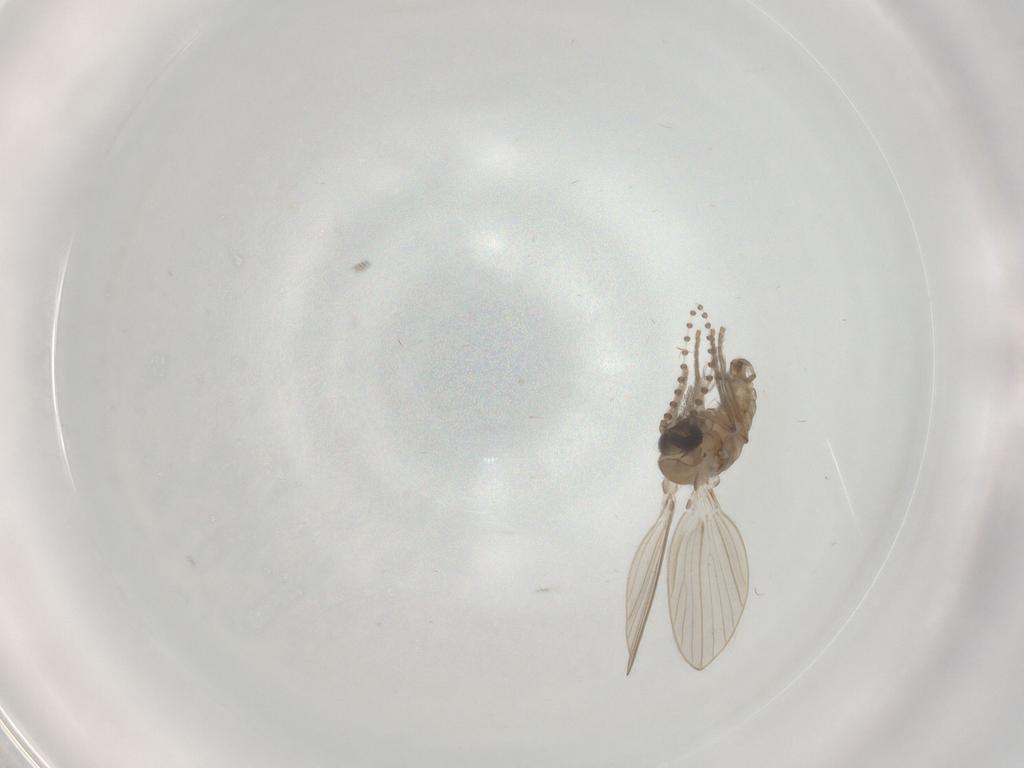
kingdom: Animalia
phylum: Arthropoda
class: Insecta
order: Diptera
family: Psychodidae
